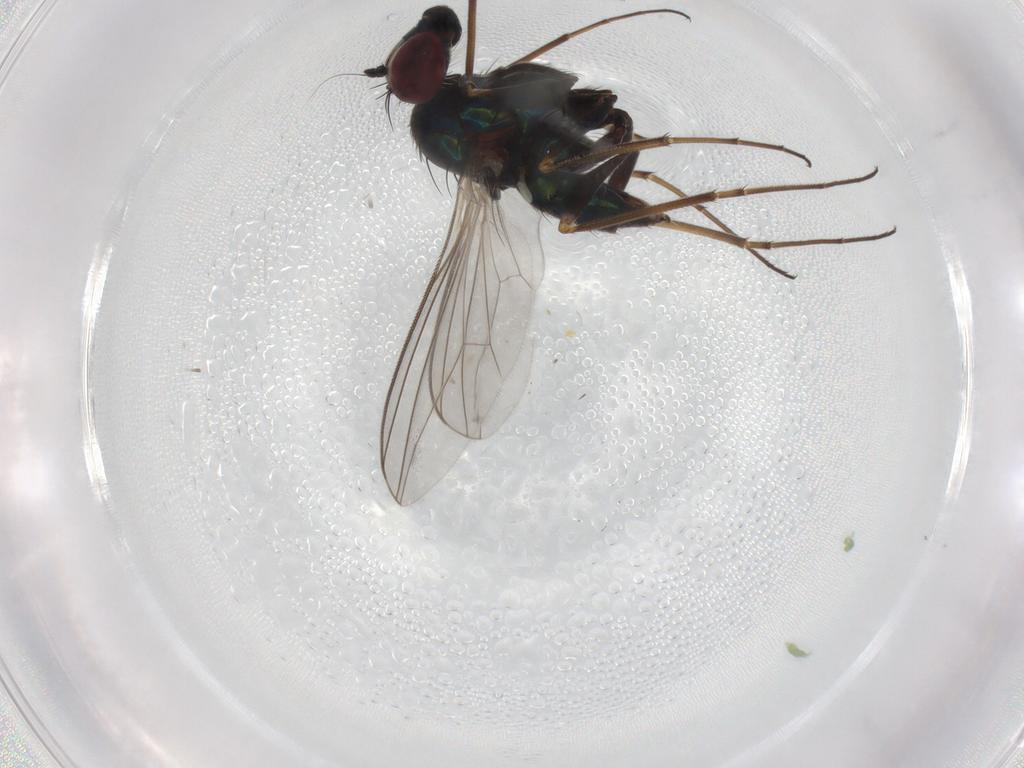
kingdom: Animalia
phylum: Arthropoda
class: Insecta
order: Diptera
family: Dolichopodidae
